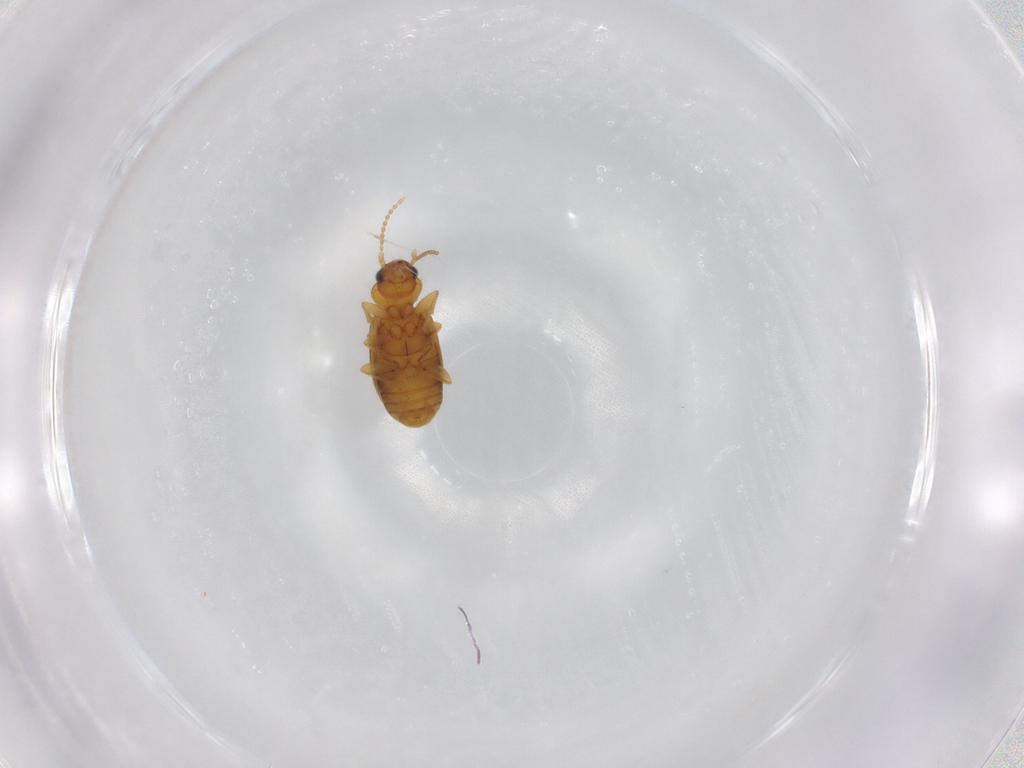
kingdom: Animalia
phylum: Arthropoda
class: Insecta
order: Coleoptera
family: Carabidae
